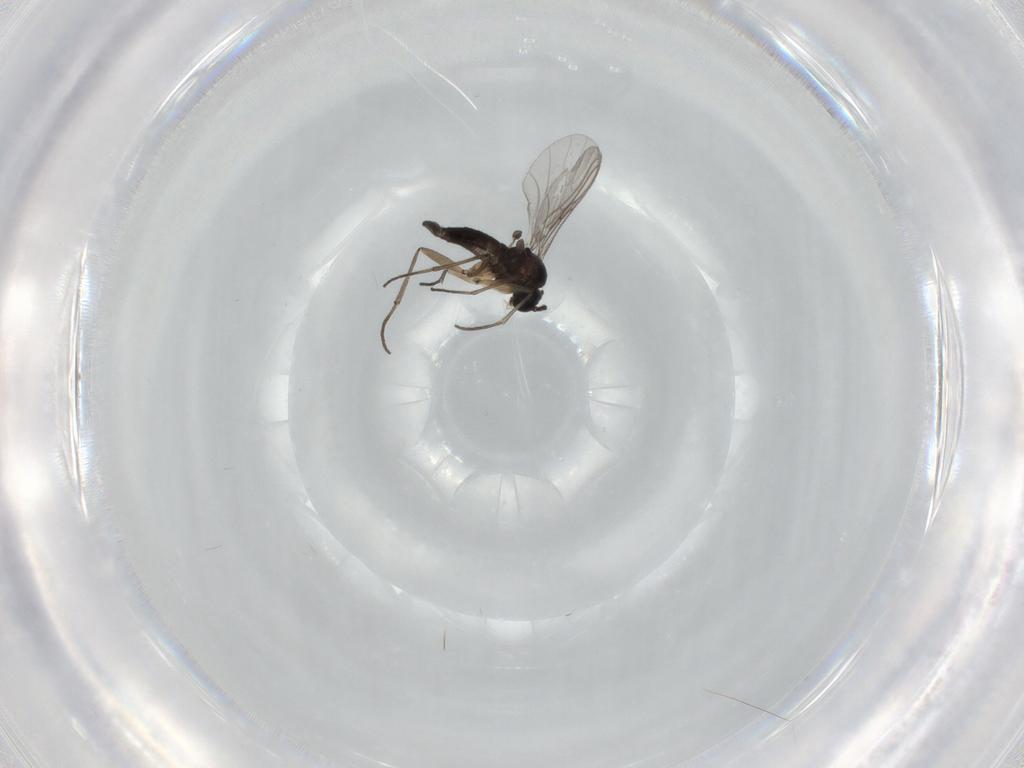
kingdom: Animalia
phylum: Arthropoda
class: Insecta
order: Diptera
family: Sciaridae
